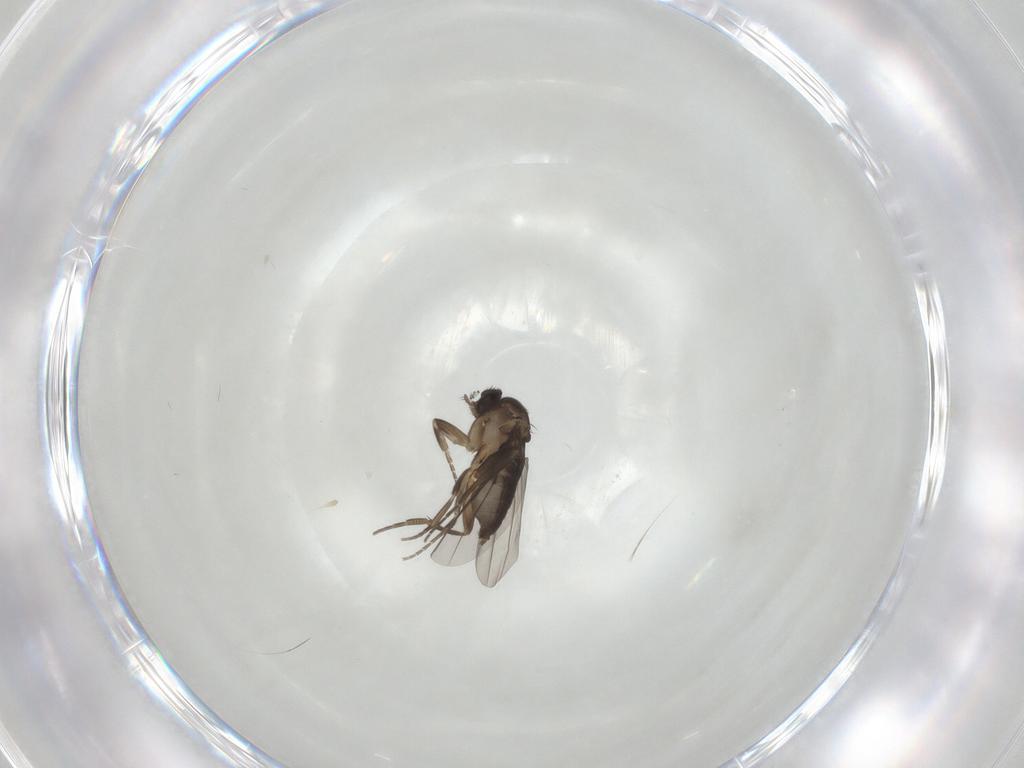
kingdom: Animalia
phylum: Arthropoda
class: Insecta
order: Diptera
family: Phoridae
